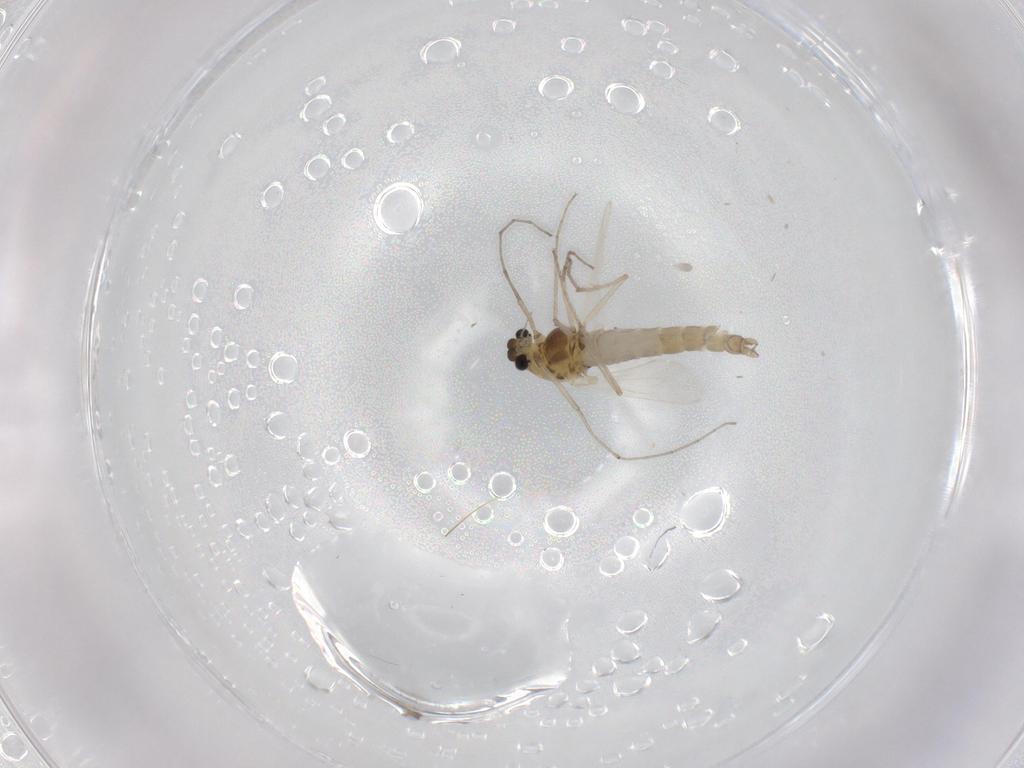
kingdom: Animalia
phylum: Arthropoda
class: Insecta
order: Diptera
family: Chironomidae
